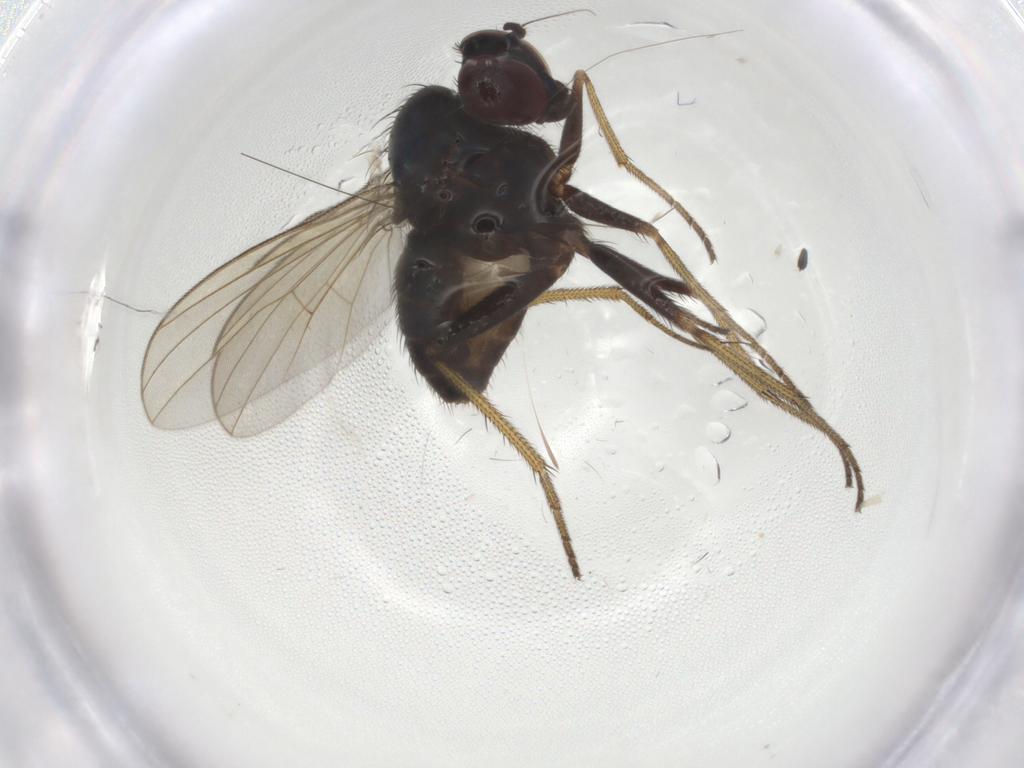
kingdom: Animalia
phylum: Arthropoda
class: Insecta
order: Diptera
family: Dolichopodidae
